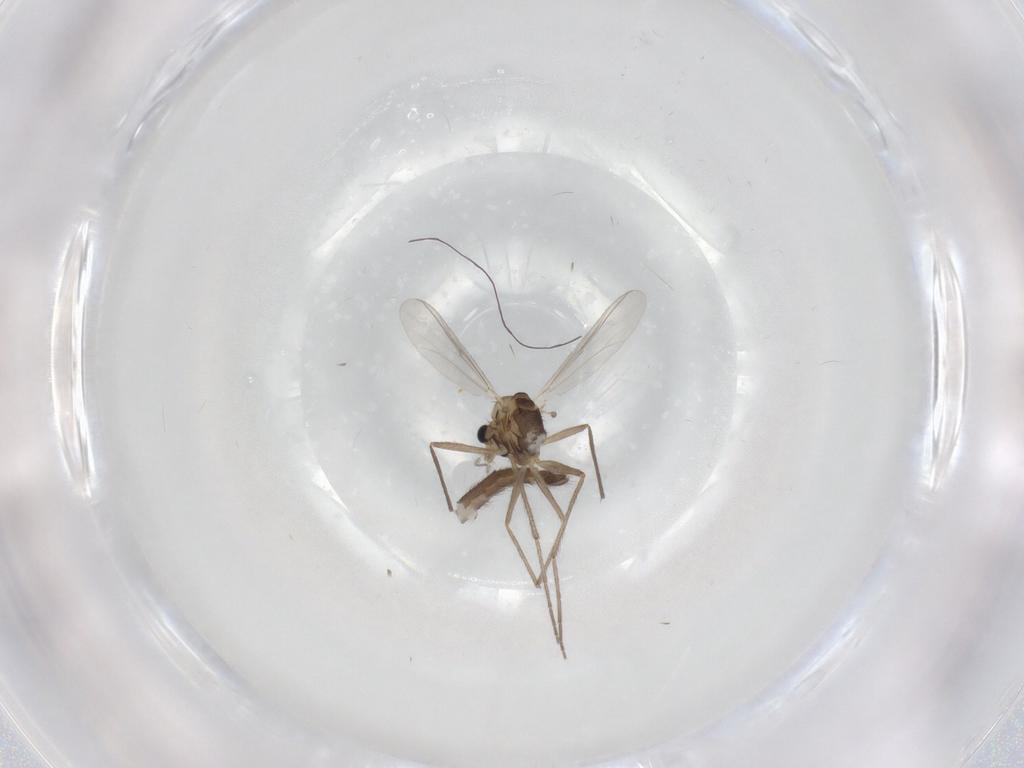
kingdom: Animalia
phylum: Arthropoda
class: Insecta
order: Diptera
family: Chironomidae
